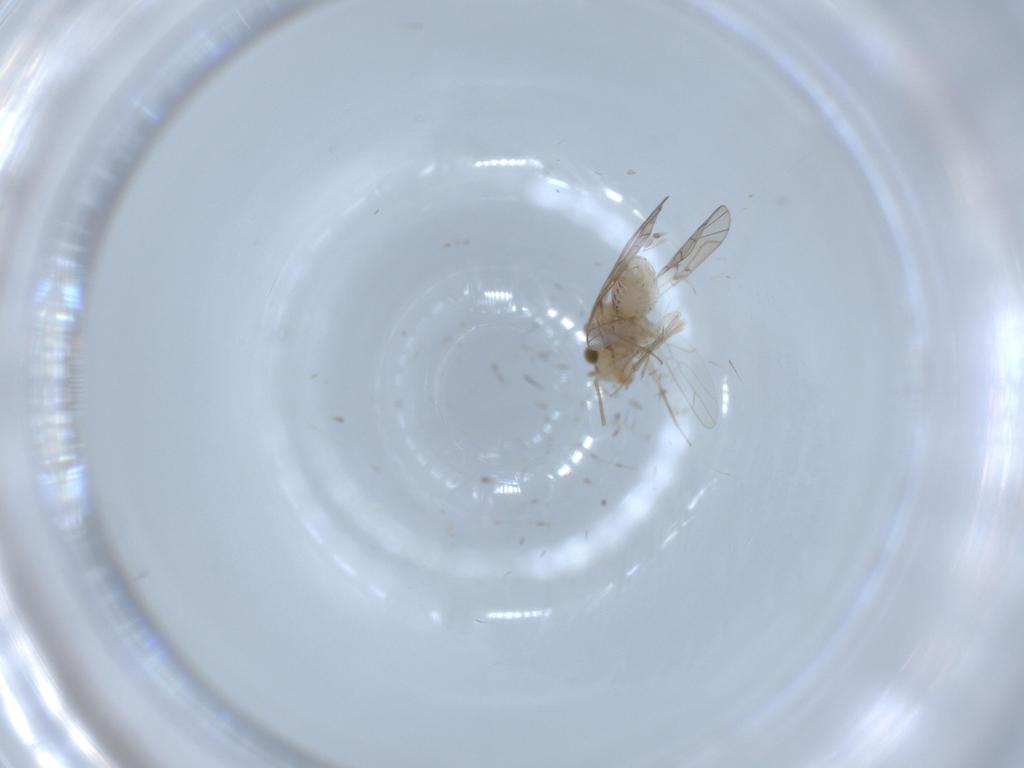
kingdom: Animalia
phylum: Arthropoda
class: Insecta
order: Psocodea
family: Lachesillidae
